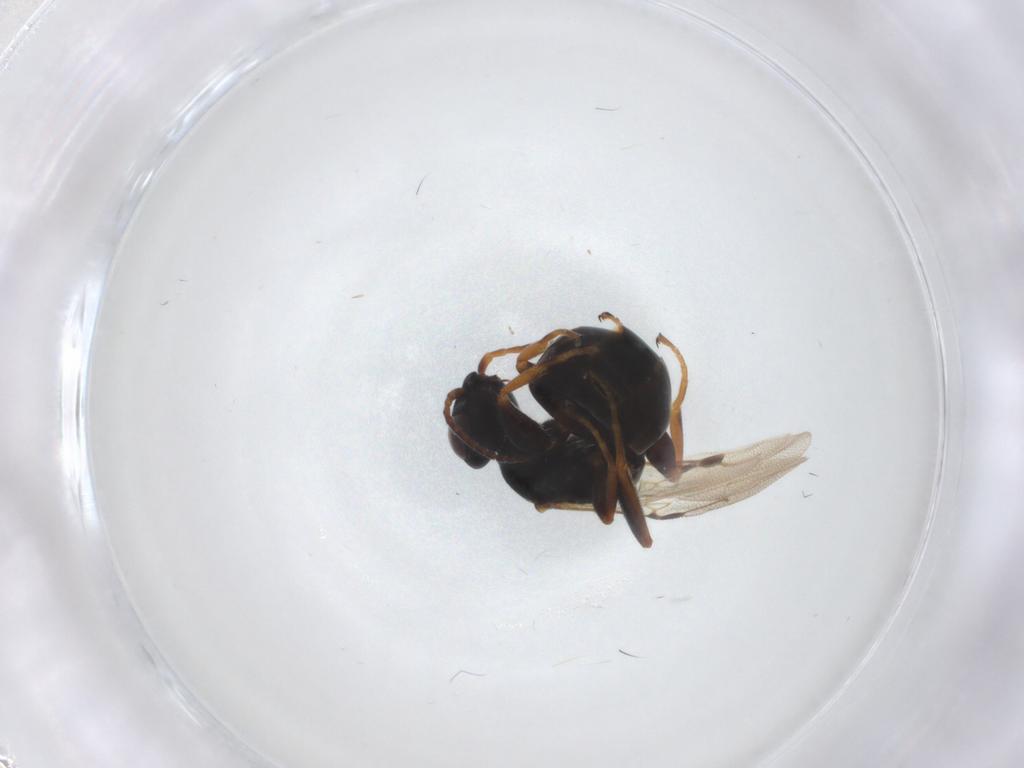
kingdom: Animalia
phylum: Arthropoda
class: Insecta
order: Hymenoptera
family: Bethylidae
